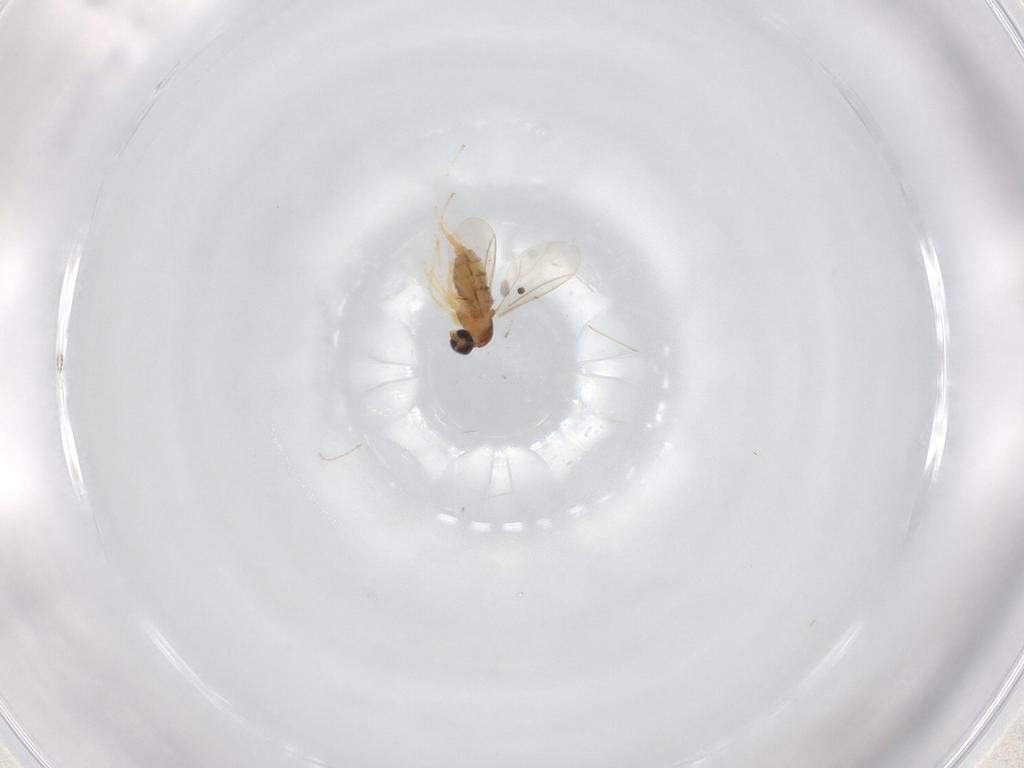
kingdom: Animalia
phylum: Arthropoda
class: Insecta
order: Diptera
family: Cecidomyiidae
